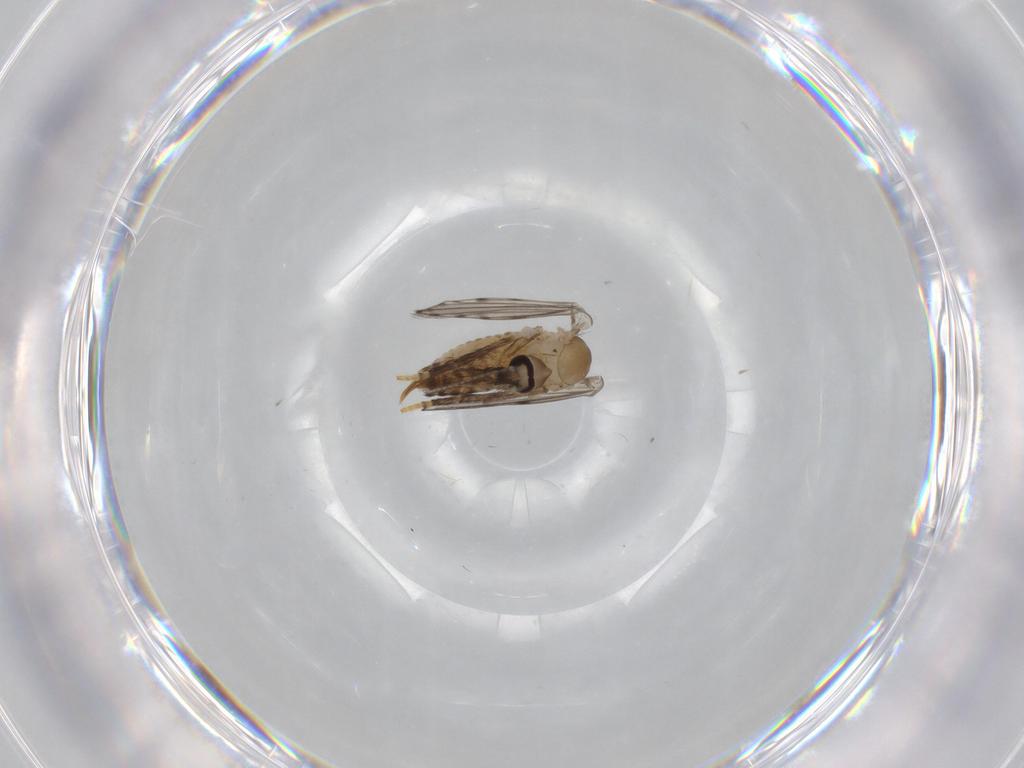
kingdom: Animalia
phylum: Arthropoda
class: Insecta
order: Diptera
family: Psychodidae
